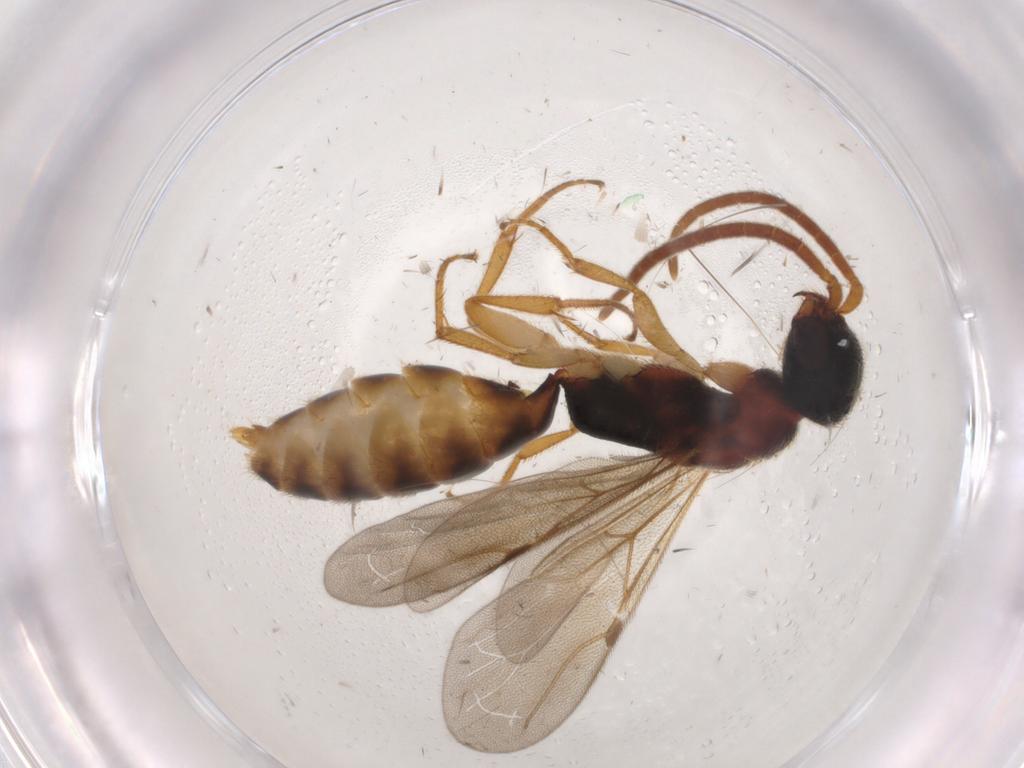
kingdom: Animalia
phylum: Arthropoda
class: Insecta
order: Hymenoptera
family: Bethylidae
